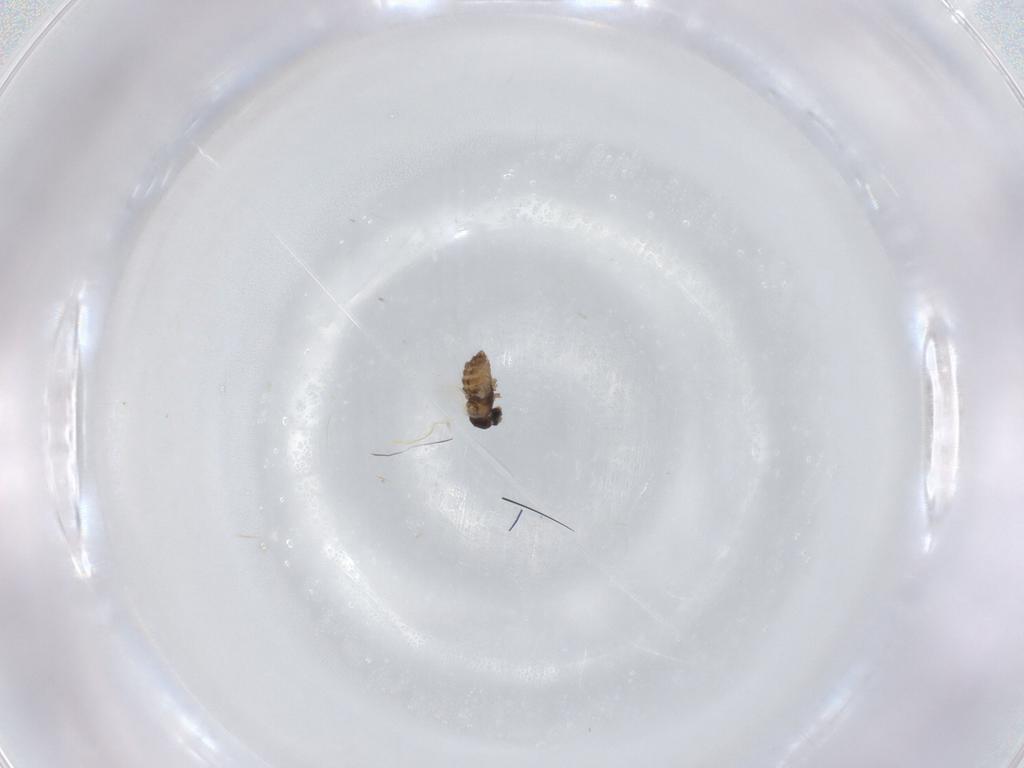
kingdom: Animalia
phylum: Arthropoda
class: Insecta
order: Diptera
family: Cecidomyiidae
